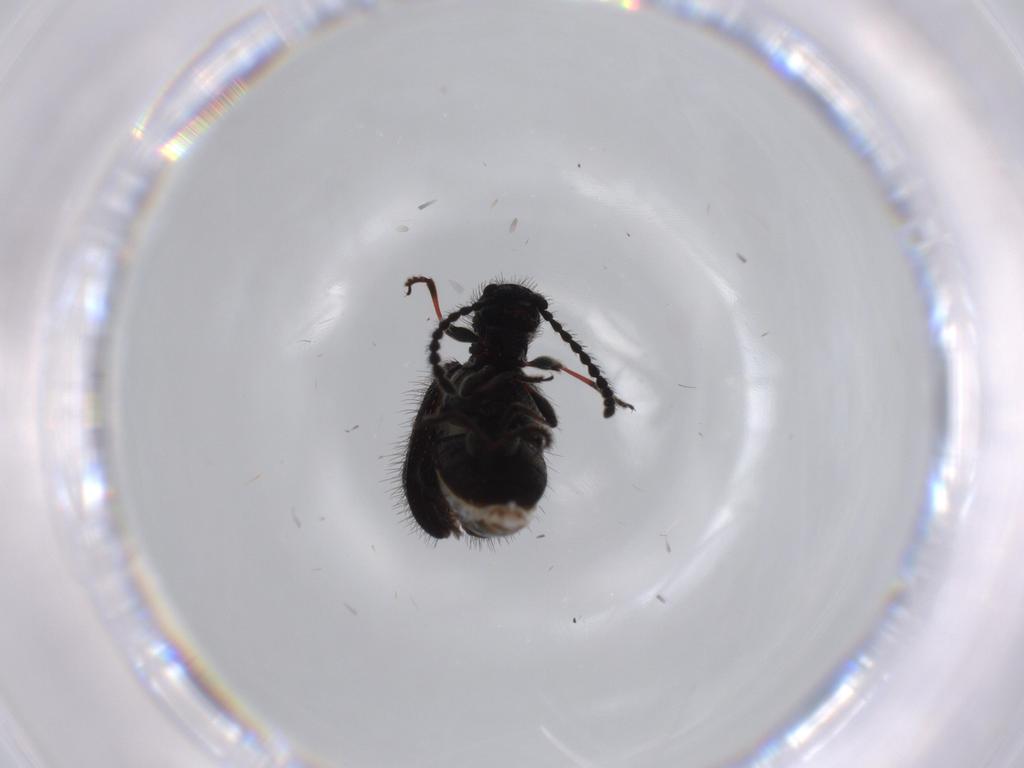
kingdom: Animalia
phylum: Arthropoda
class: Insecta
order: Coleoptera
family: Ptinidae
